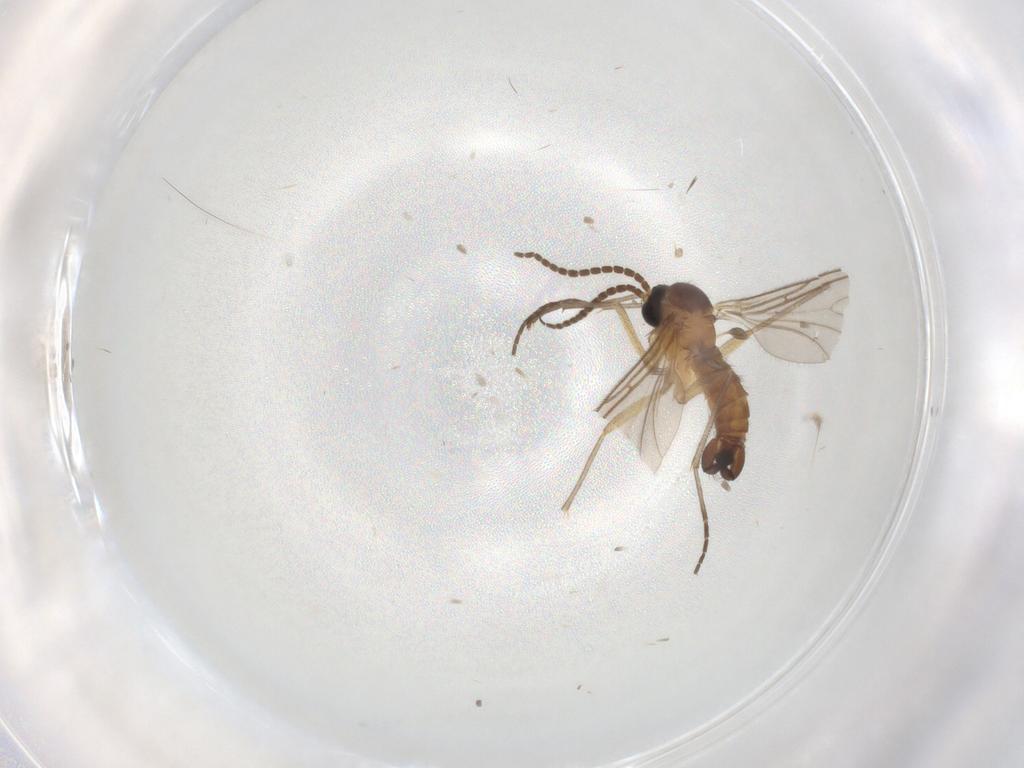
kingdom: Animalia
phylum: Arthropoda
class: Insecta
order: Diptera
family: Sciaridae
